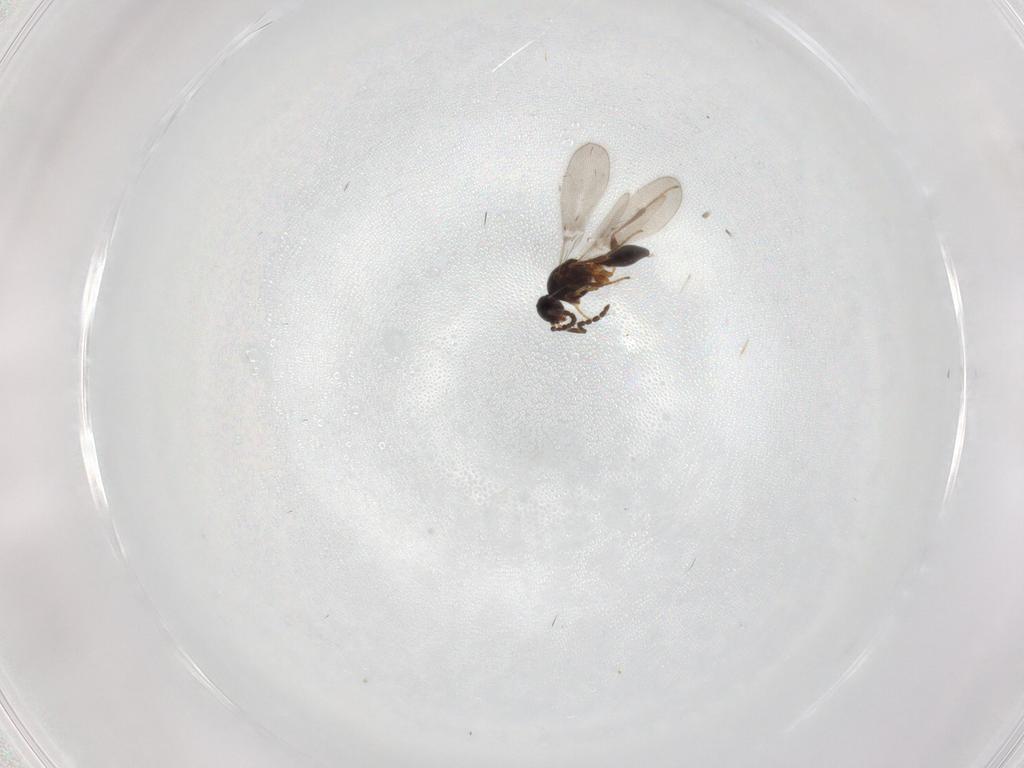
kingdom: Animalia
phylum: Arthropoda
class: Insecta
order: Hymenoptera
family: Platygastridae
